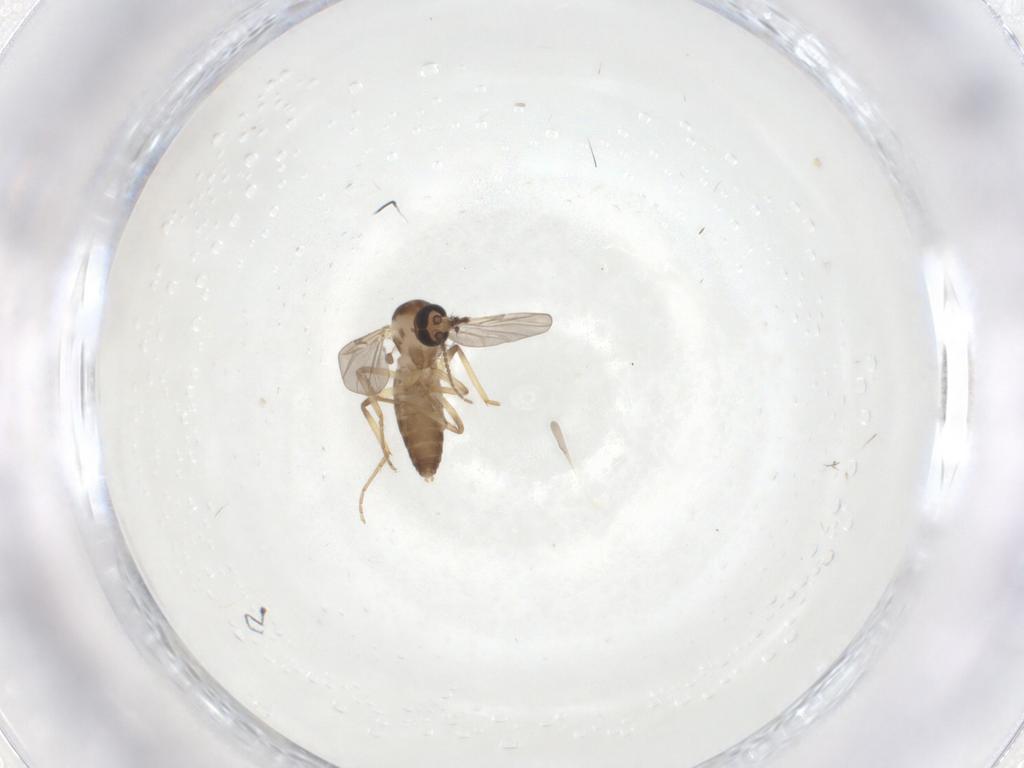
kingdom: Animalia
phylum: Arthropoda
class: Insecta
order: Diptera
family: Ceratopogonidae
